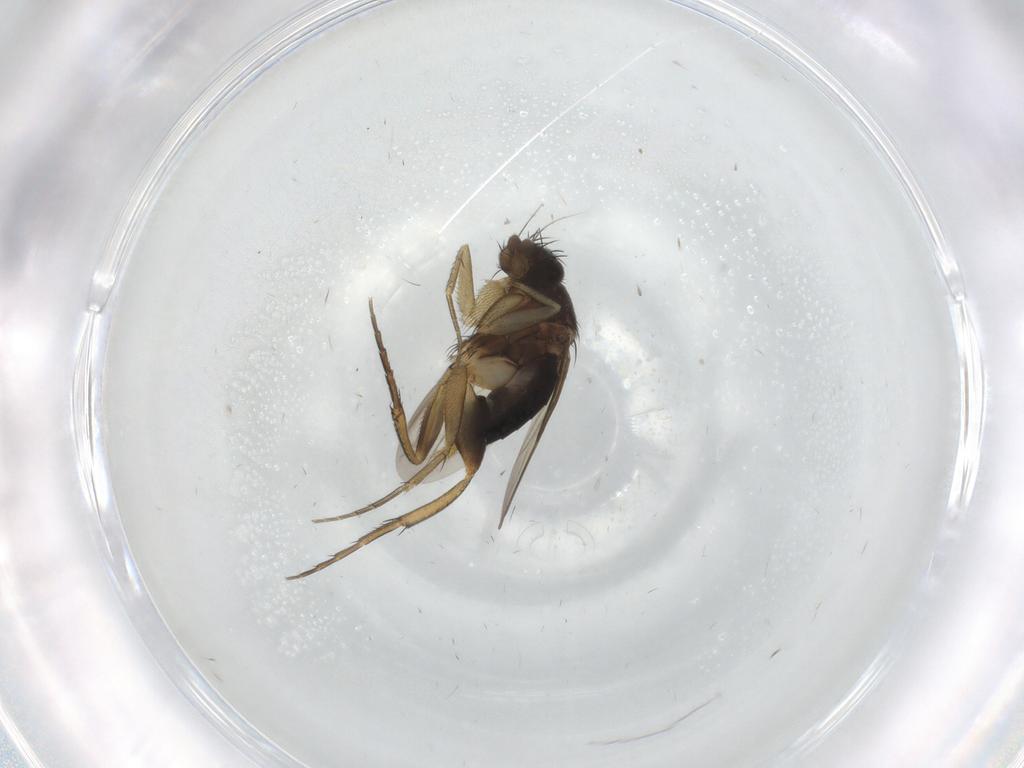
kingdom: Animalia
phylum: Arthropoda
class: Insecta
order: Diptera
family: Phoridae
